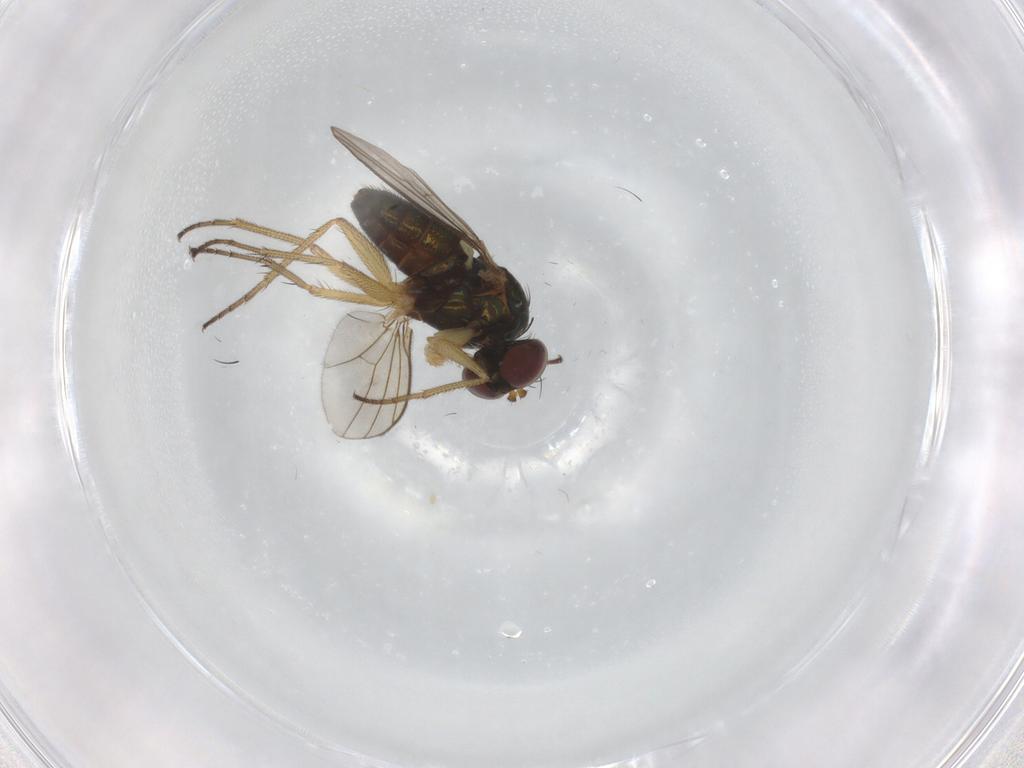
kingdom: Animalia
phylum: Arthropoda
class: Insecta
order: Diptera
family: Dolichopodidae
